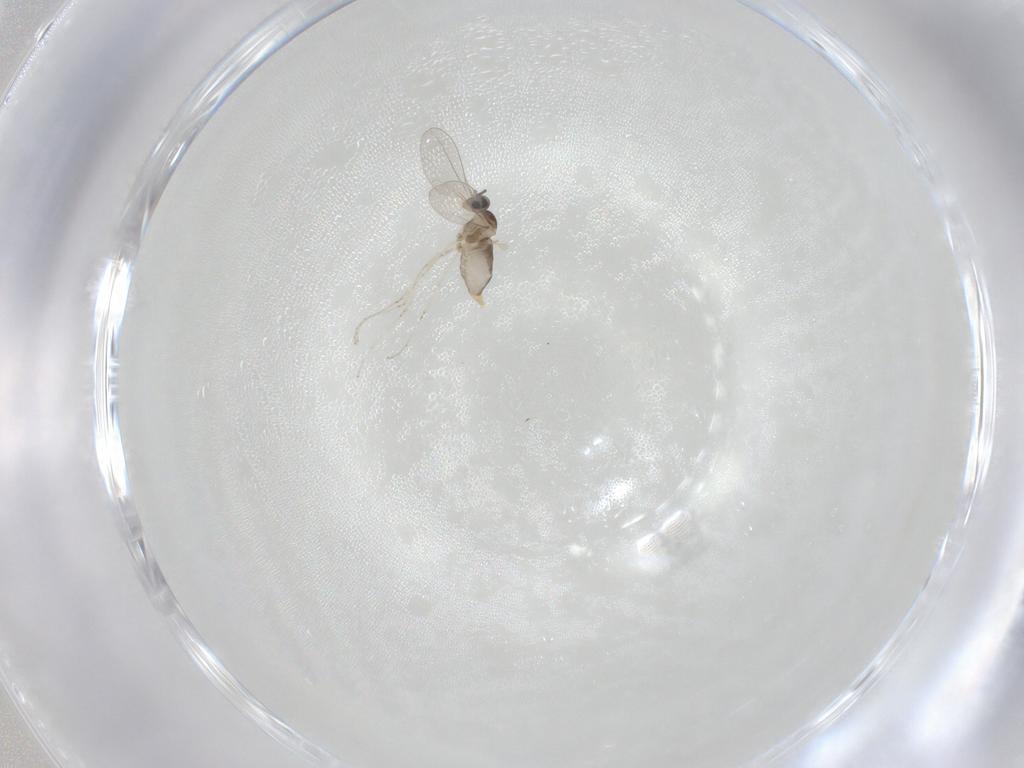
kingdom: Animalia
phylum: Arthropoda
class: Insecta
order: Diptera
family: Cecidomyiidae
